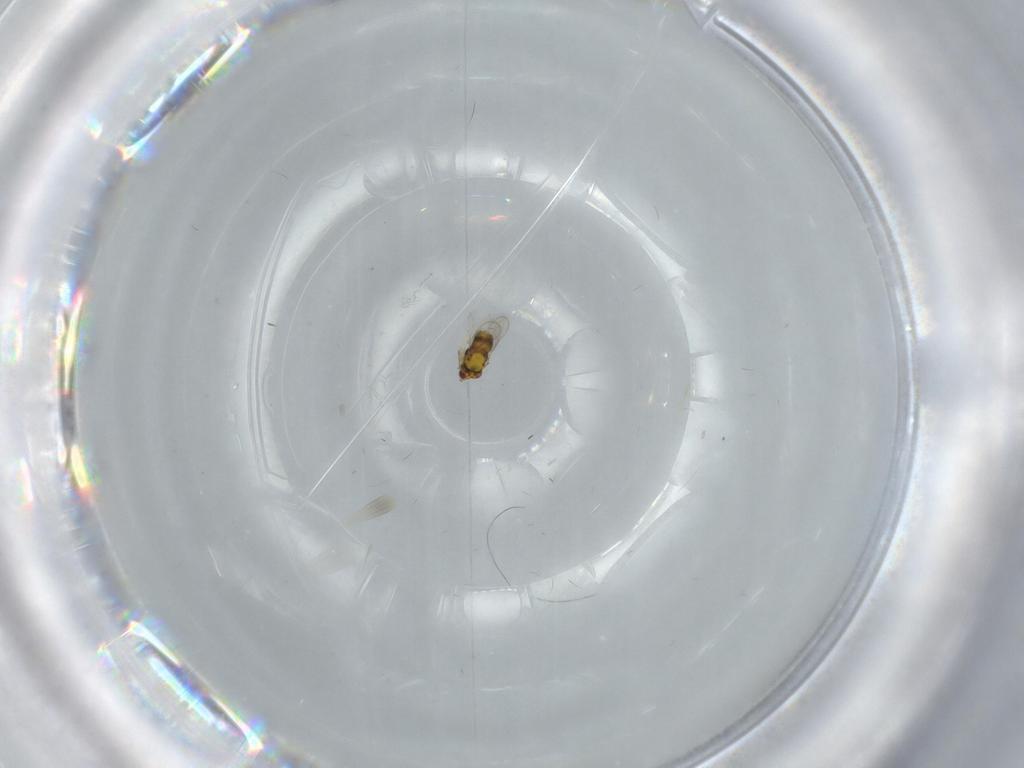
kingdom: Animalia
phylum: Arthropoda
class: Insecta
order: Hymenoptera
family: Aphelinidae
